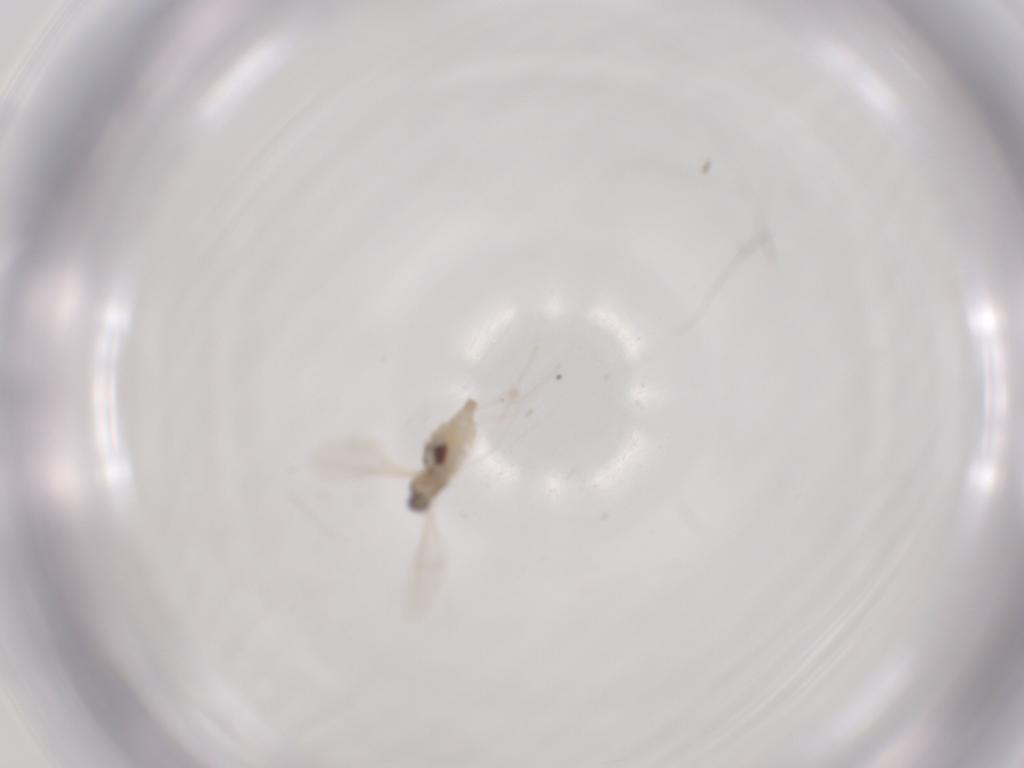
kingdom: Animalia
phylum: Arthropoda
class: Insecta
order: Diptera
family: Cecidomyiidae
